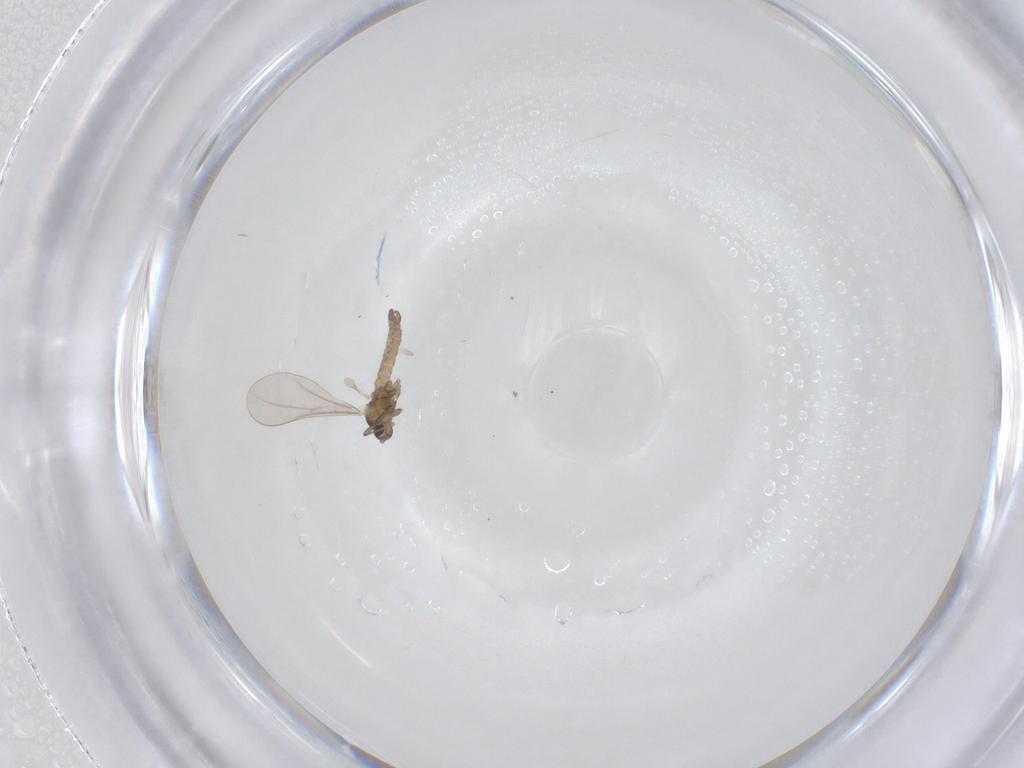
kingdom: Animalia
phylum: Arthropoda
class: Insecta
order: Diptera
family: Cecidomyiidae
